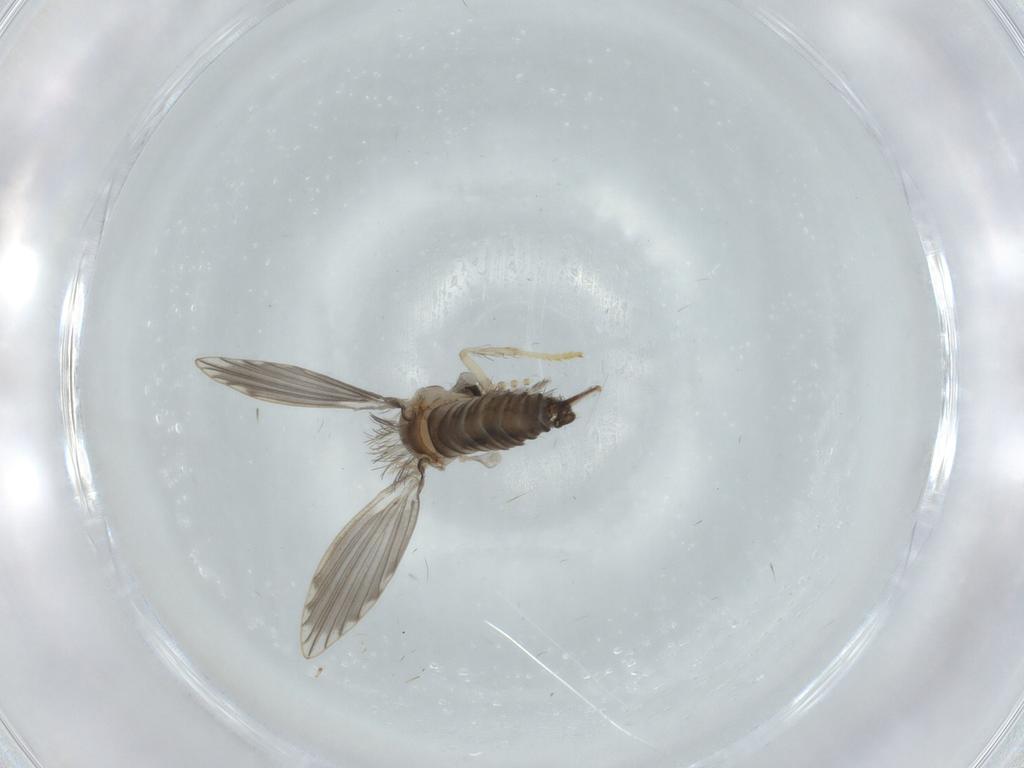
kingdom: Animalia
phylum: Arthropoda
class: Insecta
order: Diptera
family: Psychodidae
